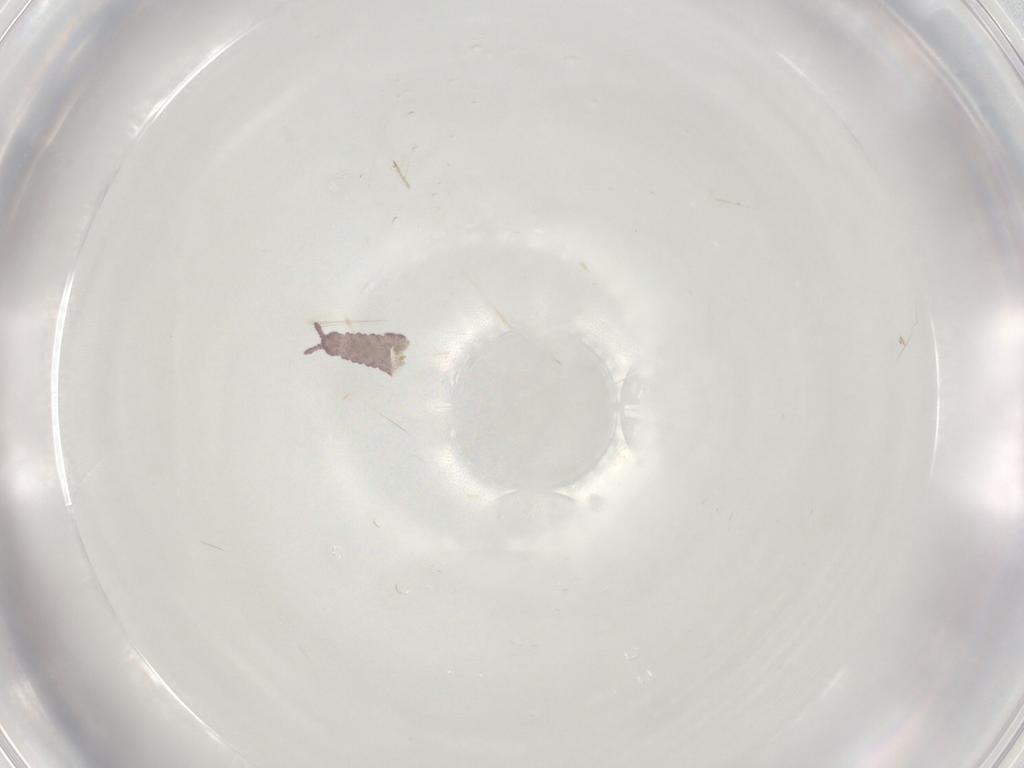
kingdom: Animalia
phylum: Arthropoda
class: Collembola
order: Poduromorpha
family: Hypogastruridae
